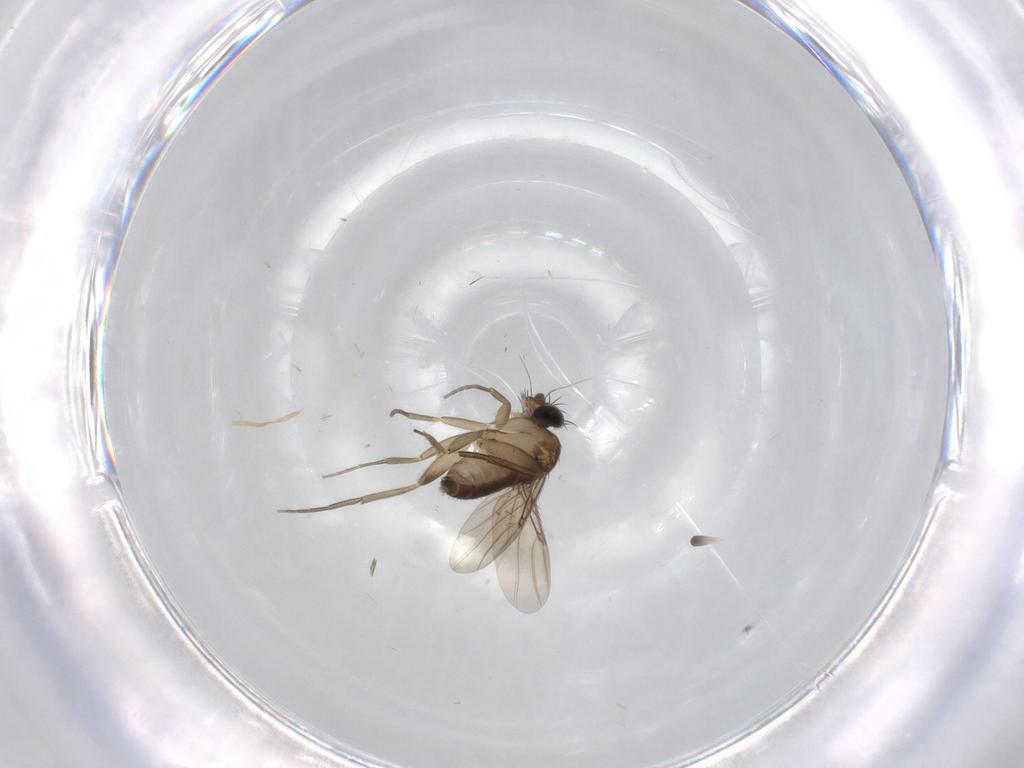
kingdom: Animalia
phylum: Arthropoda
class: Insecta
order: Diptera
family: Phoridae
